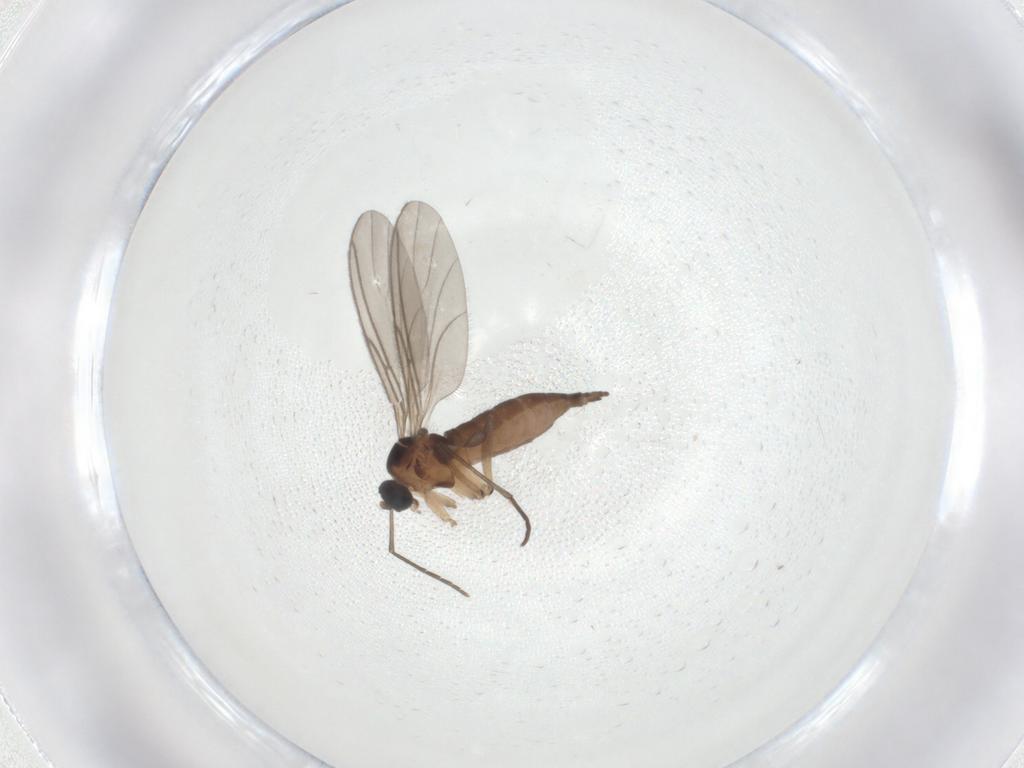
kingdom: Animalia
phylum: Arthropoda
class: Insecta
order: Diptera
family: Sciaridae
